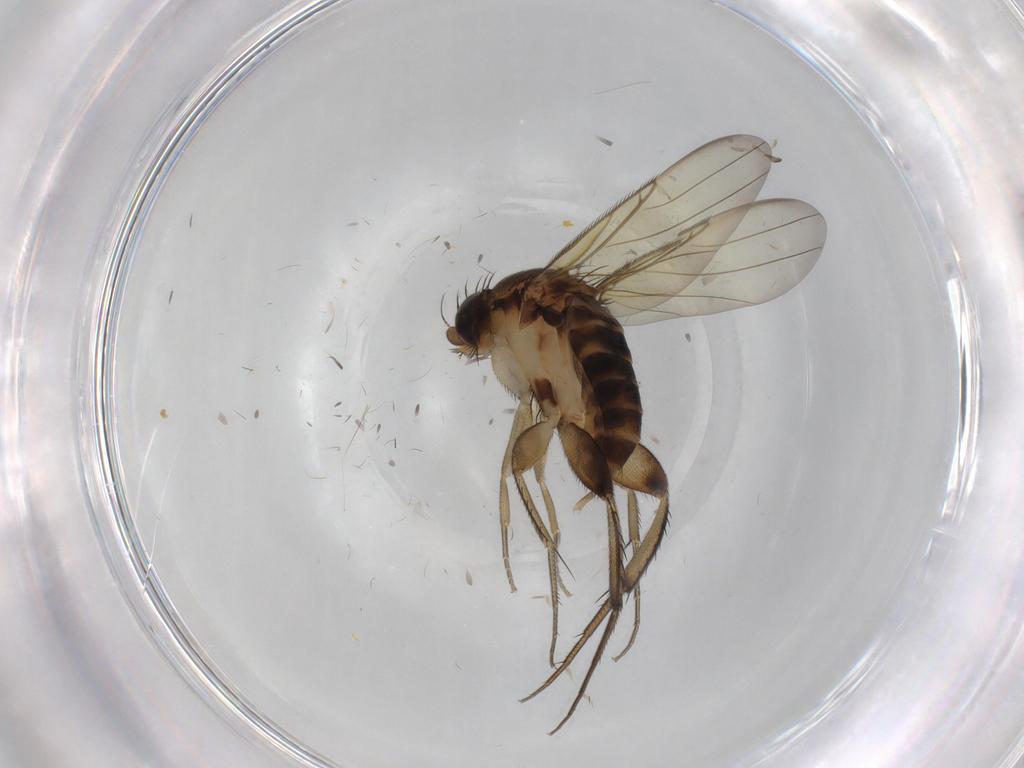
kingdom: Animalia
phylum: Arthropoda
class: Insecta
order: Diptera
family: Phoridae
